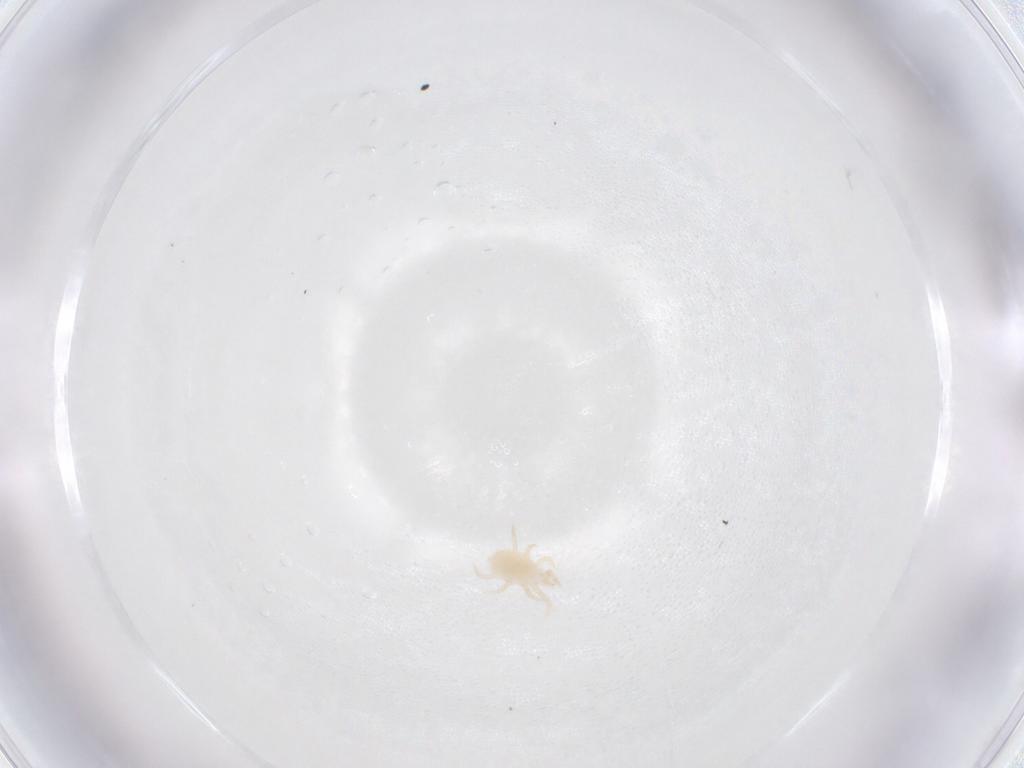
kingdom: Animalia
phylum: Arthropoda
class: Arachnida
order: Mesostigmata
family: Laelapidae
